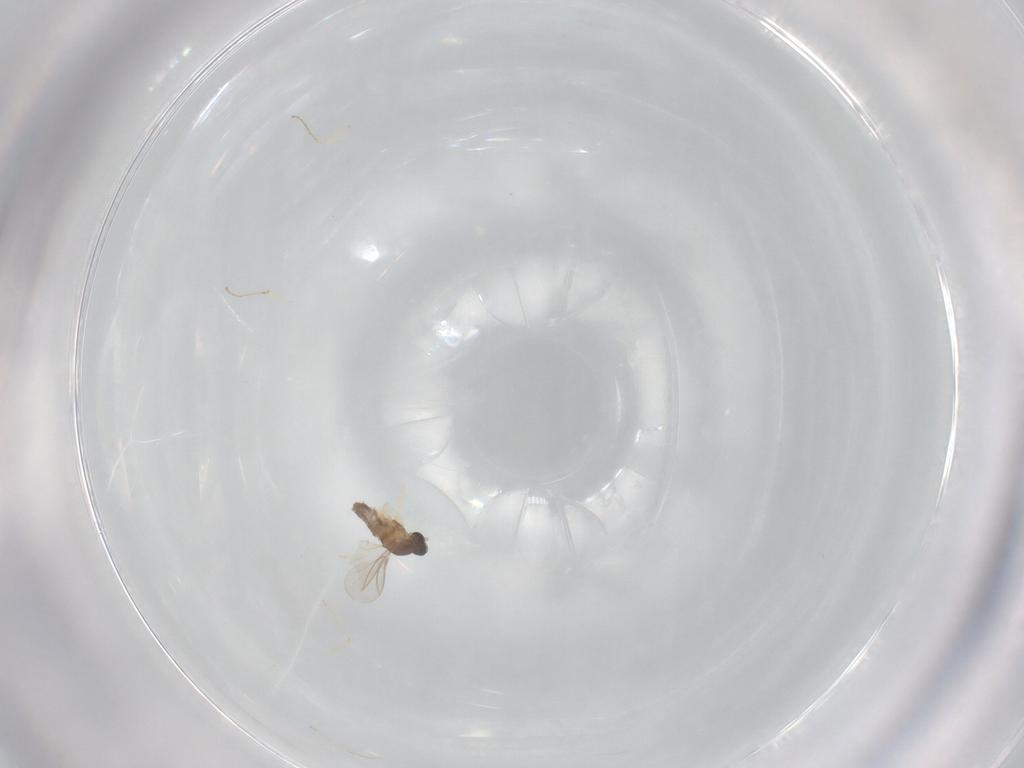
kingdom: Animalia
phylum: Arthropoda
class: Insecta
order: Diptera
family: Cecidomyiidae
